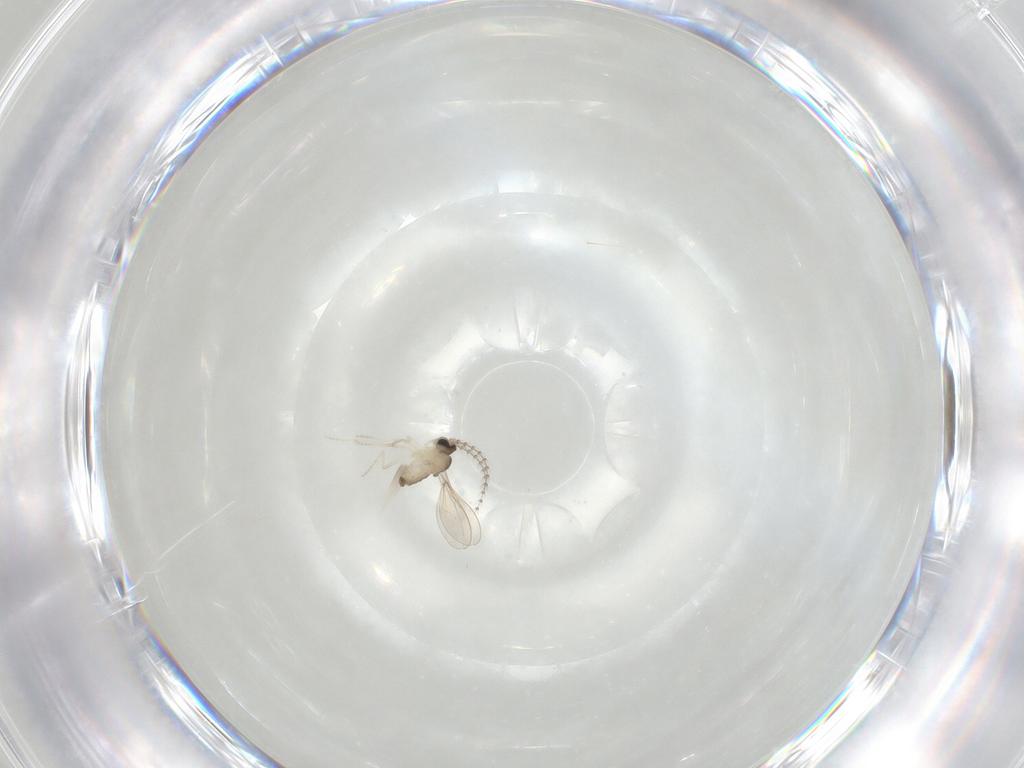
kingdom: Animalia
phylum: Arthropoda
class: Insecta
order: Diptera
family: Cecidomyiidae
